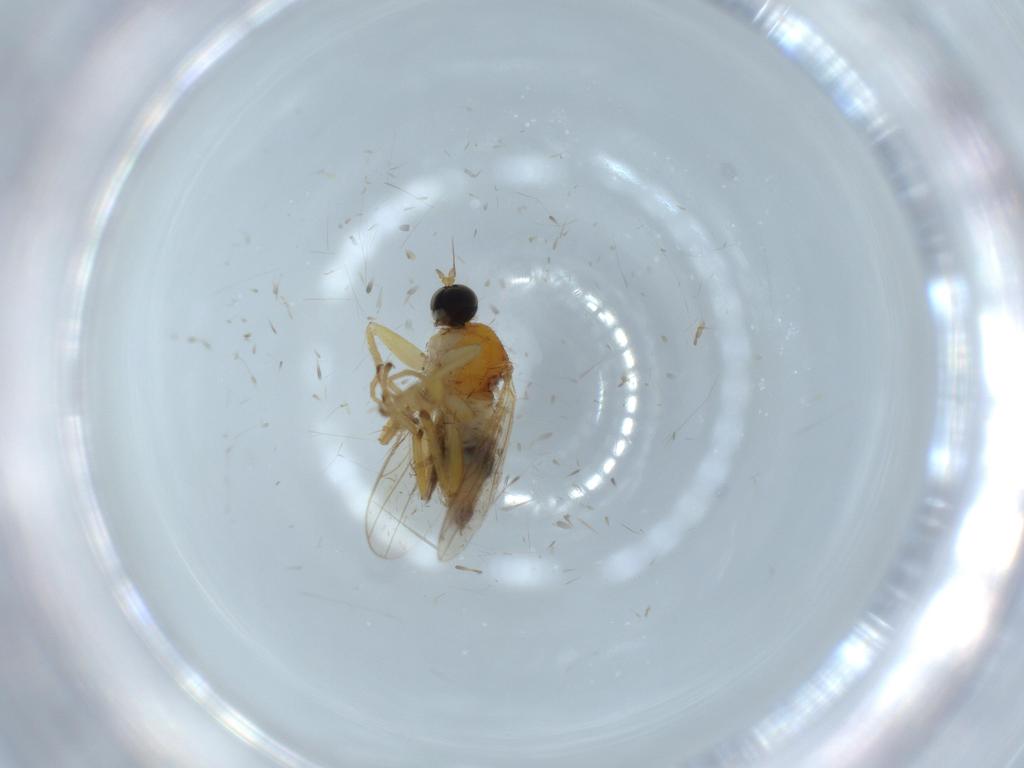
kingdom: Animalia
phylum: Arthropoda
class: Insecta
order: Diptera
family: Hybotidae
